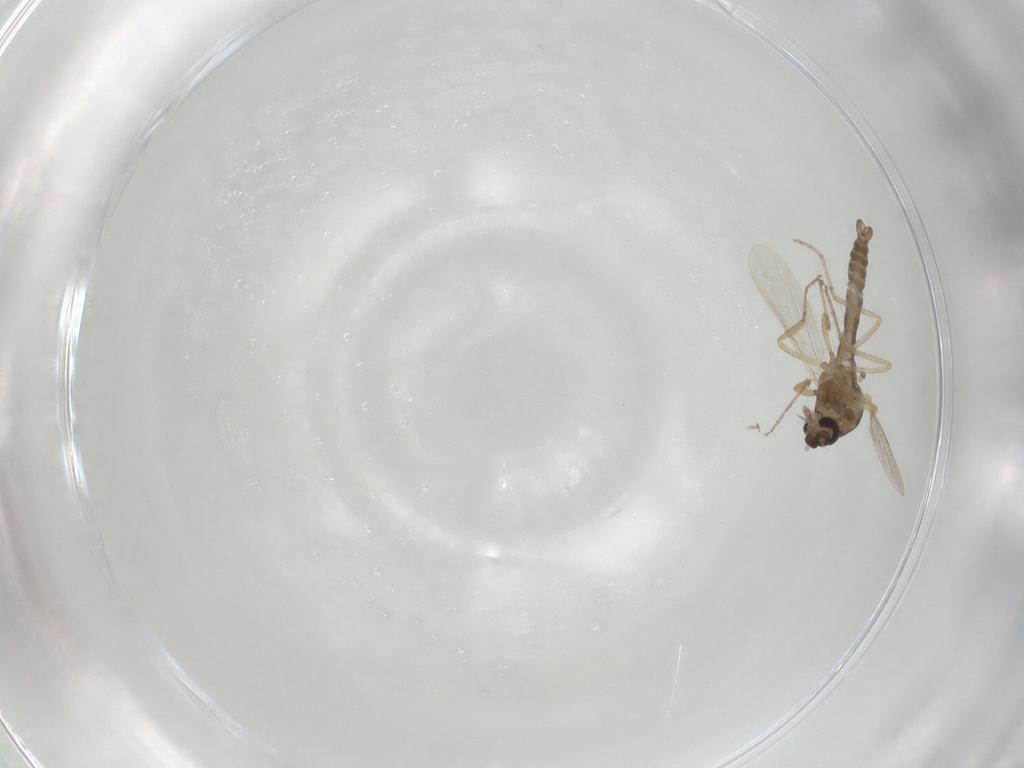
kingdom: Animalia
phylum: Arthropoda
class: Insecta
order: Diptera
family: Ceratopogonidae
